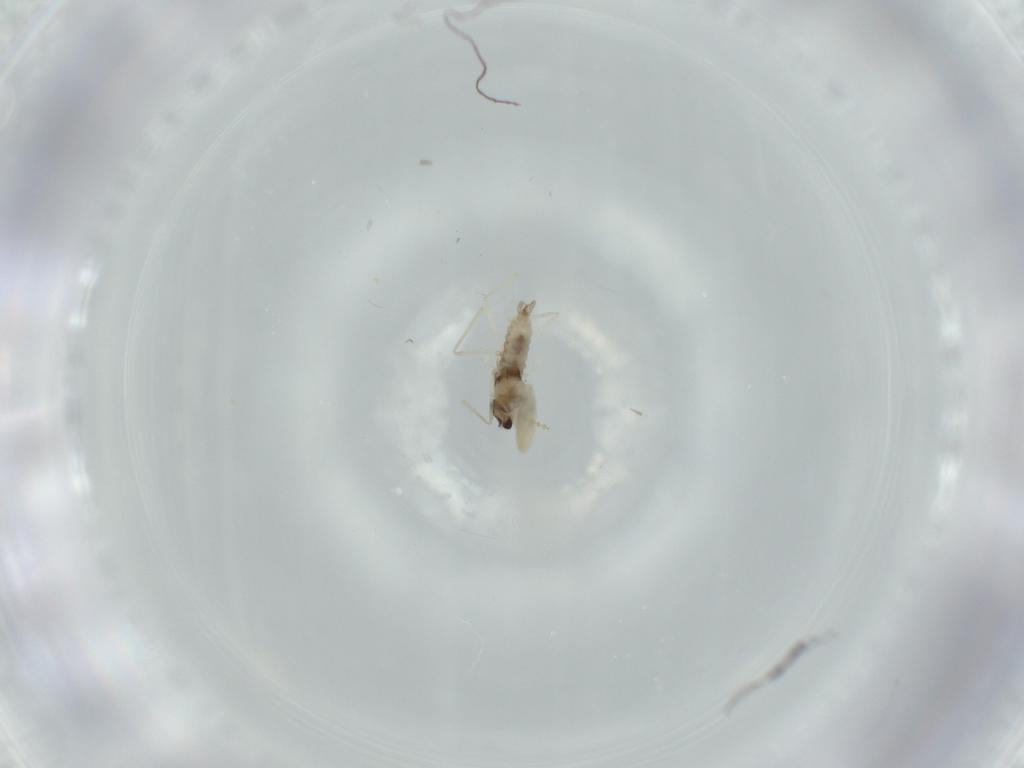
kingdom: Animalia
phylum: Arthropoda
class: Insecta
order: Diptera
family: Cecidomyiidae
